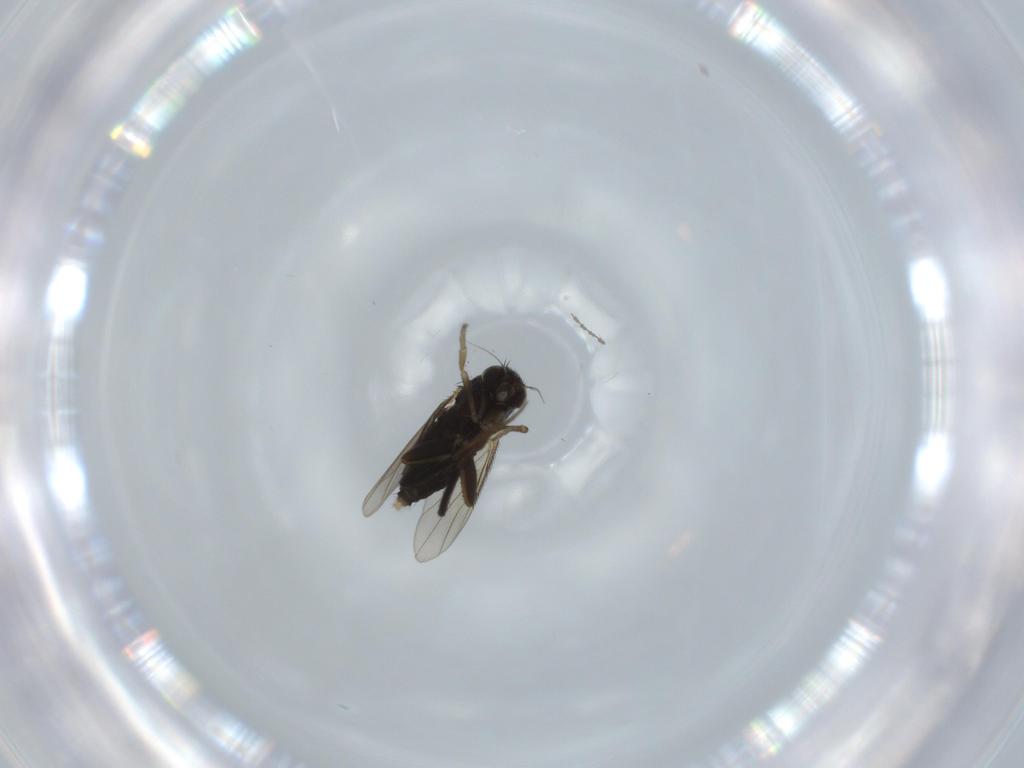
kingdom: Animalia
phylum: Arthropoda
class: Insecta
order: Diptera
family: Phoridae
